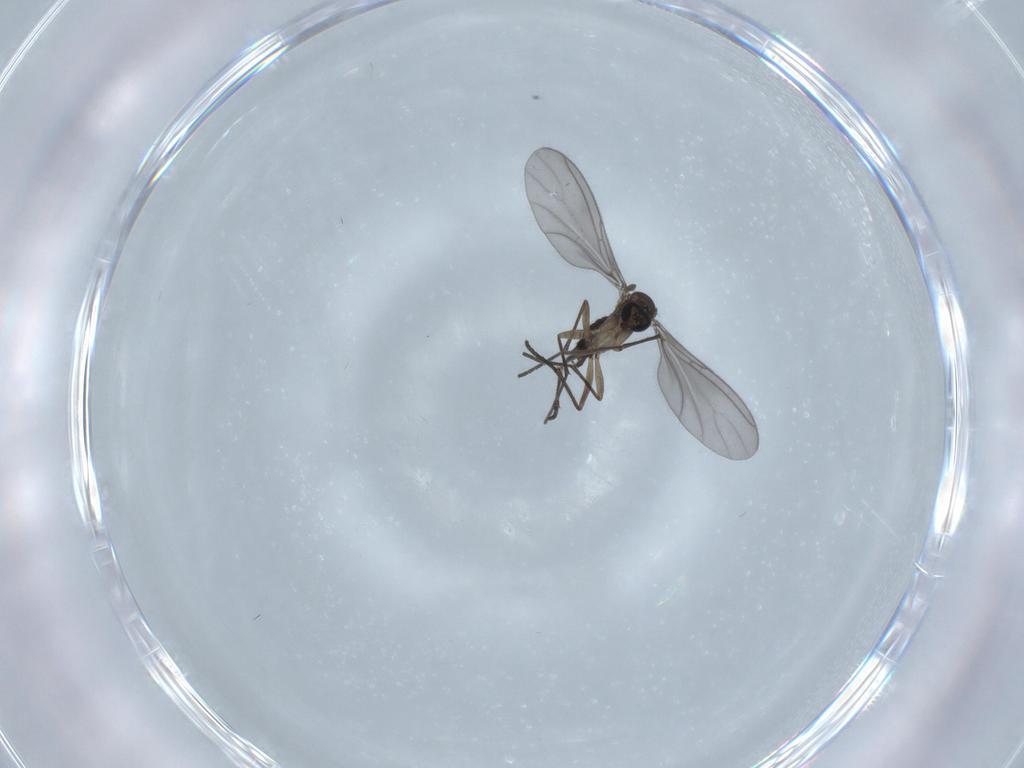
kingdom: Animalia
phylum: Arthropoda
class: Insecta
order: Diptera
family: Sciaridae
